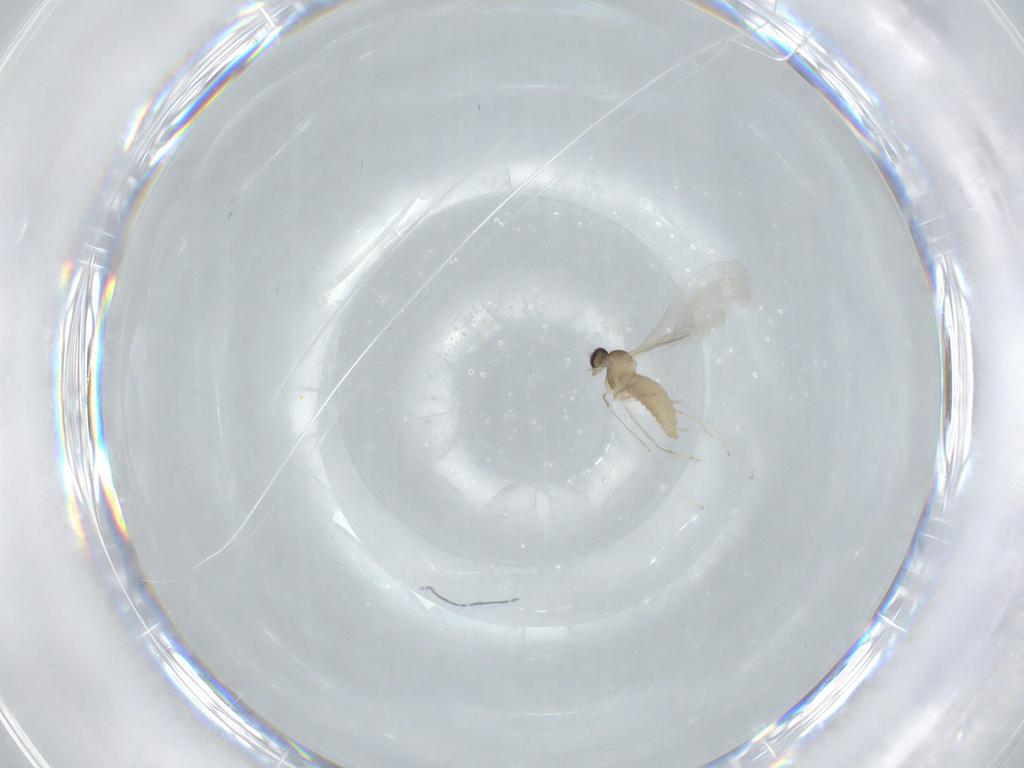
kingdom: Animalia
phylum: Arthropoda
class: Insecta
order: Diptera
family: Cecidomyiidae
